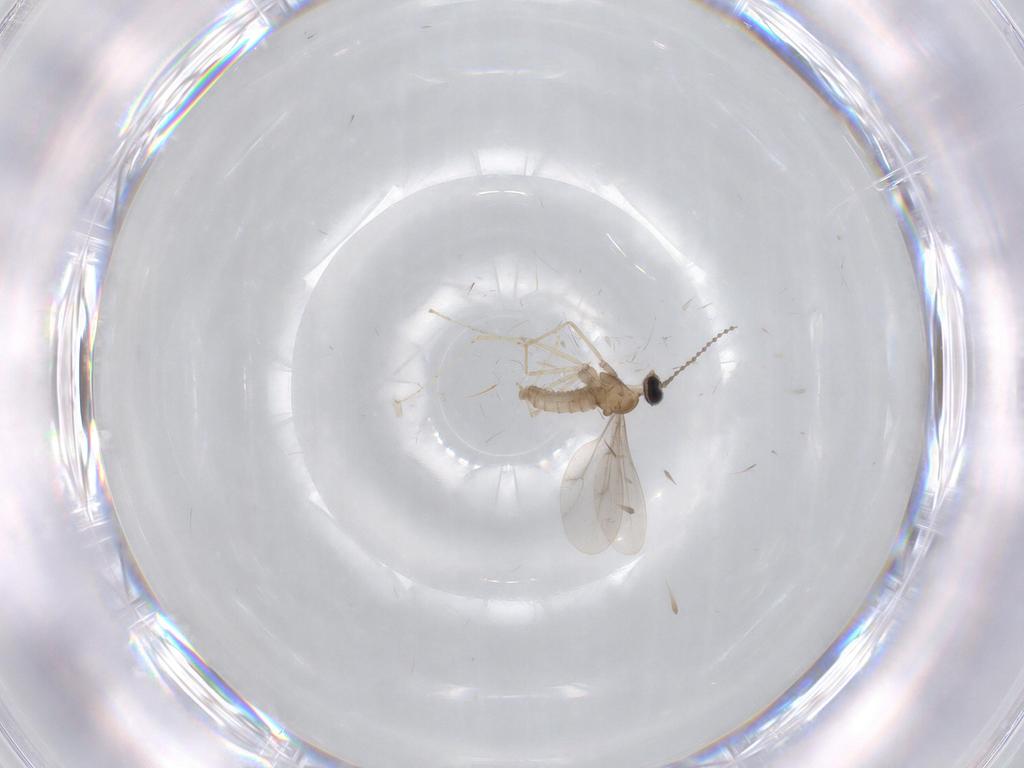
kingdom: Animalia
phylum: Arthropoda
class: Insecta
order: Diptera
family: Cecidomyiidae
